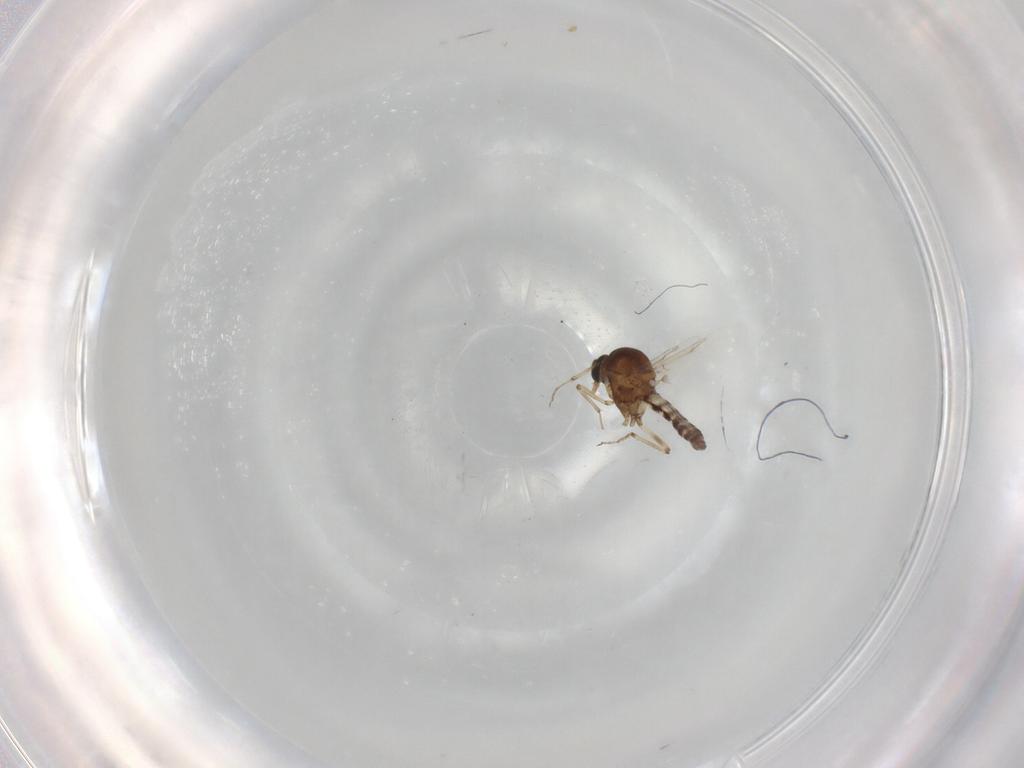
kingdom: Animalia
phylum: Arthropoda
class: Insecta
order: Diptera
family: Ceratopogonidae
